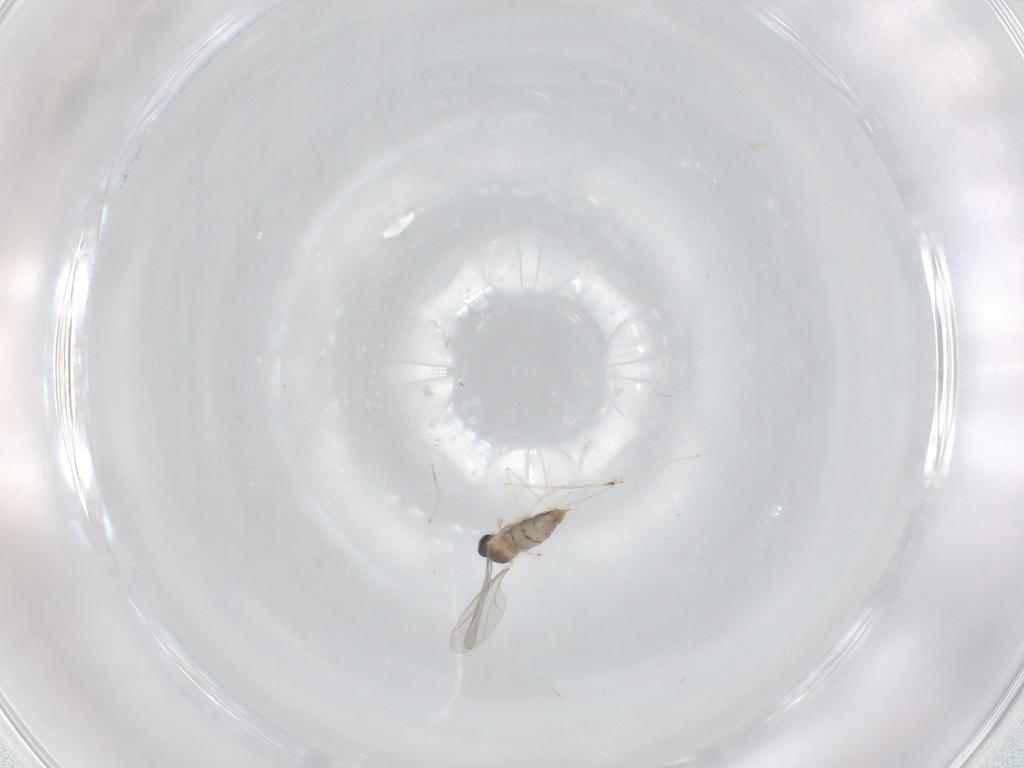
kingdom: Animalia
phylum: Arthropoda
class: Insecta
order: Diptera
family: Cecidomyiidae
